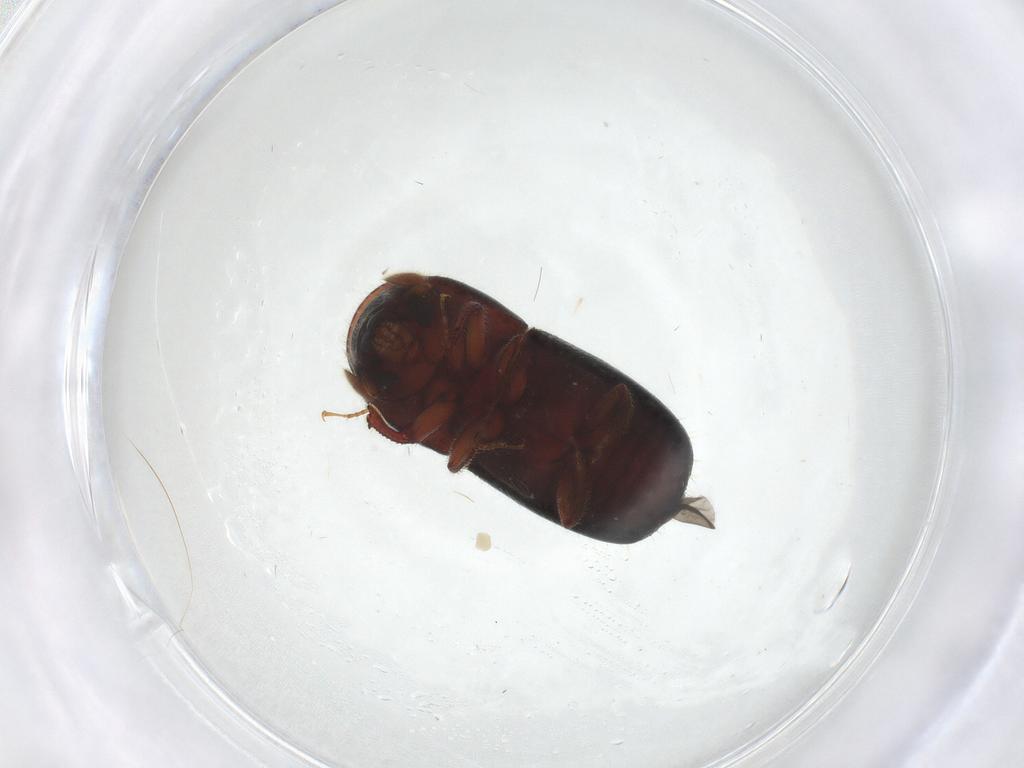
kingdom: Animalia
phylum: Arthropoda
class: Insecta
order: Coleoptera
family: Curculionidae
